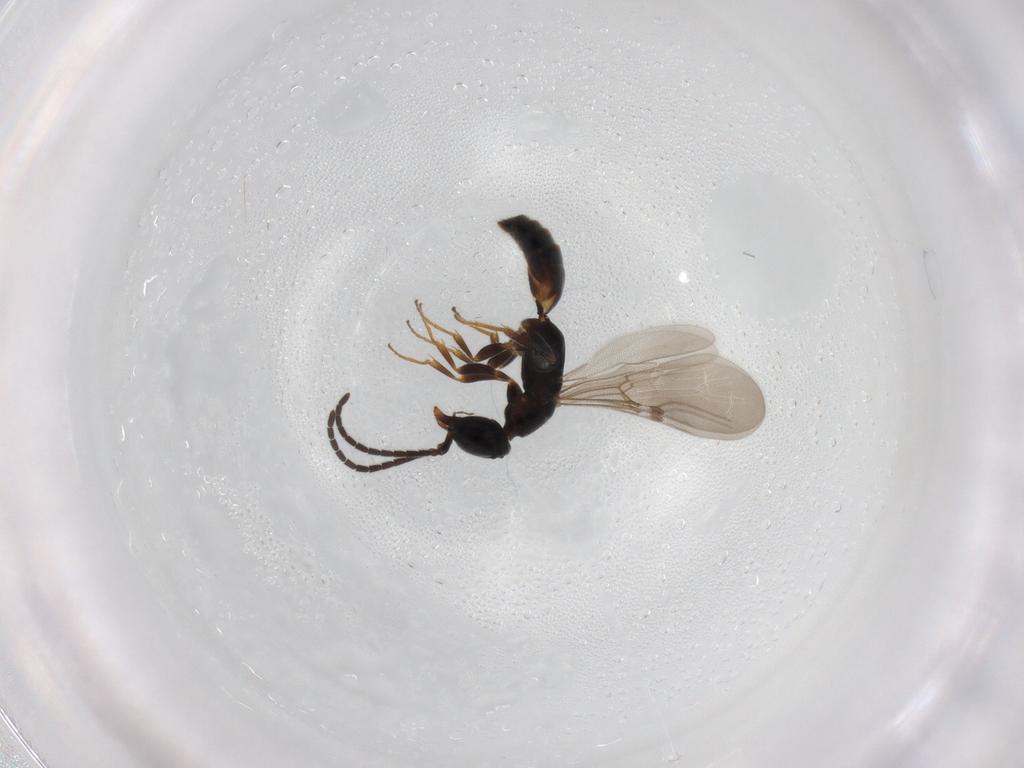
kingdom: Animalia
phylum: Arthropoda
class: Insecta
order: Hymenoptera
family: Bethylidae
